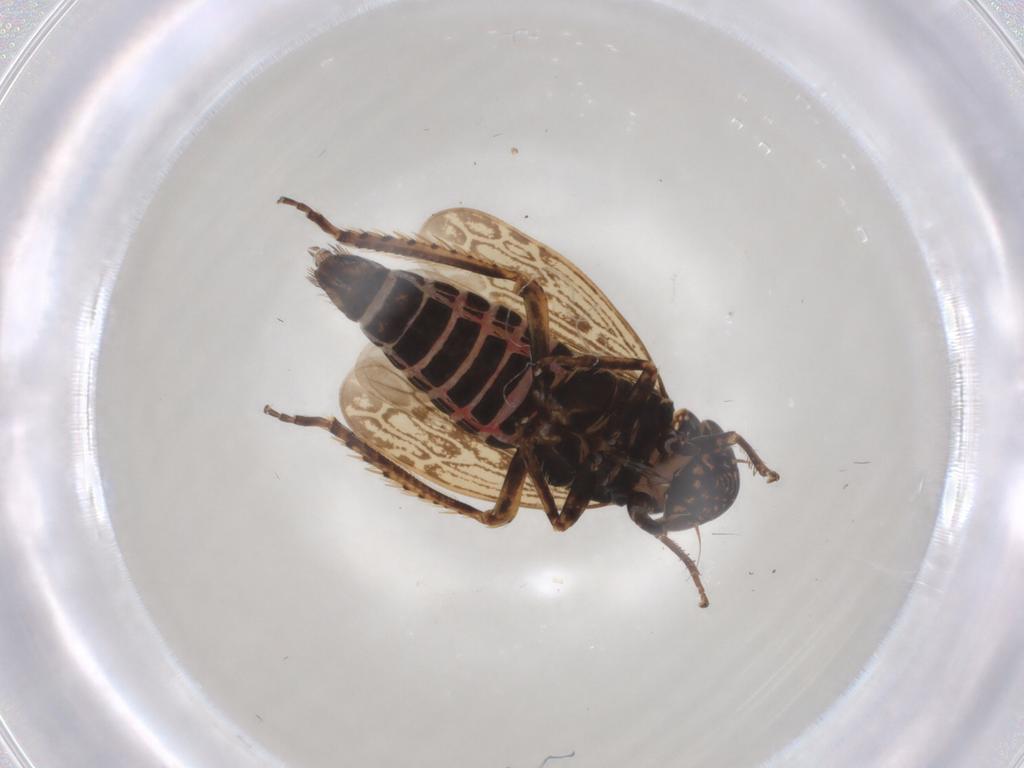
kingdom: Animalia
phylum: Arthropoda
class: Insecta
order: Hemiptera
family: Cicadellidae
